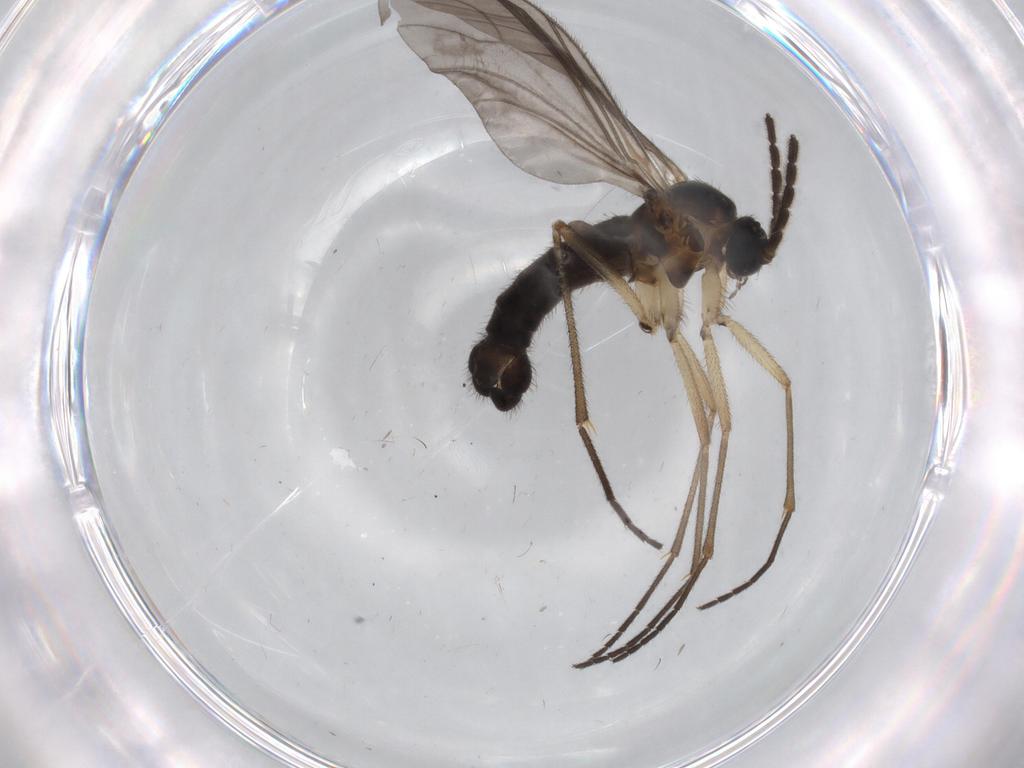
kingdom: Animalia
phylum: Arthropoda
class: Insecta
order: Diptera
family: Sciaridae
